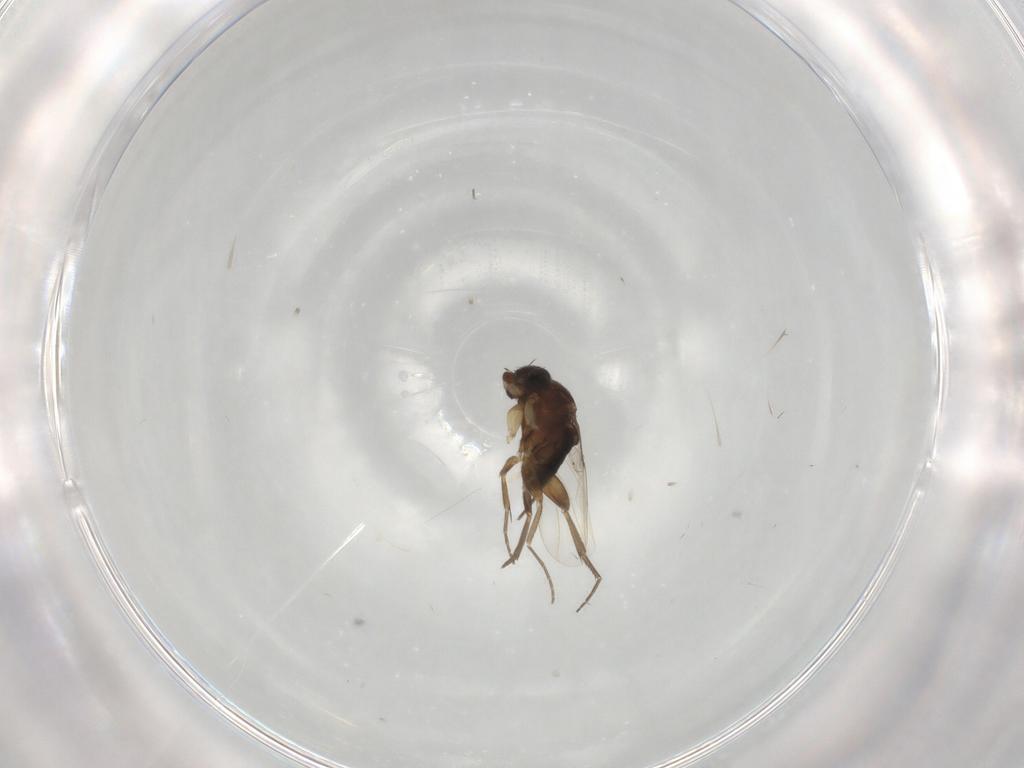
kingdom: Animalia
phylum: Arthropoda
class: Insecta
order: Diptera
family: Phoridae
